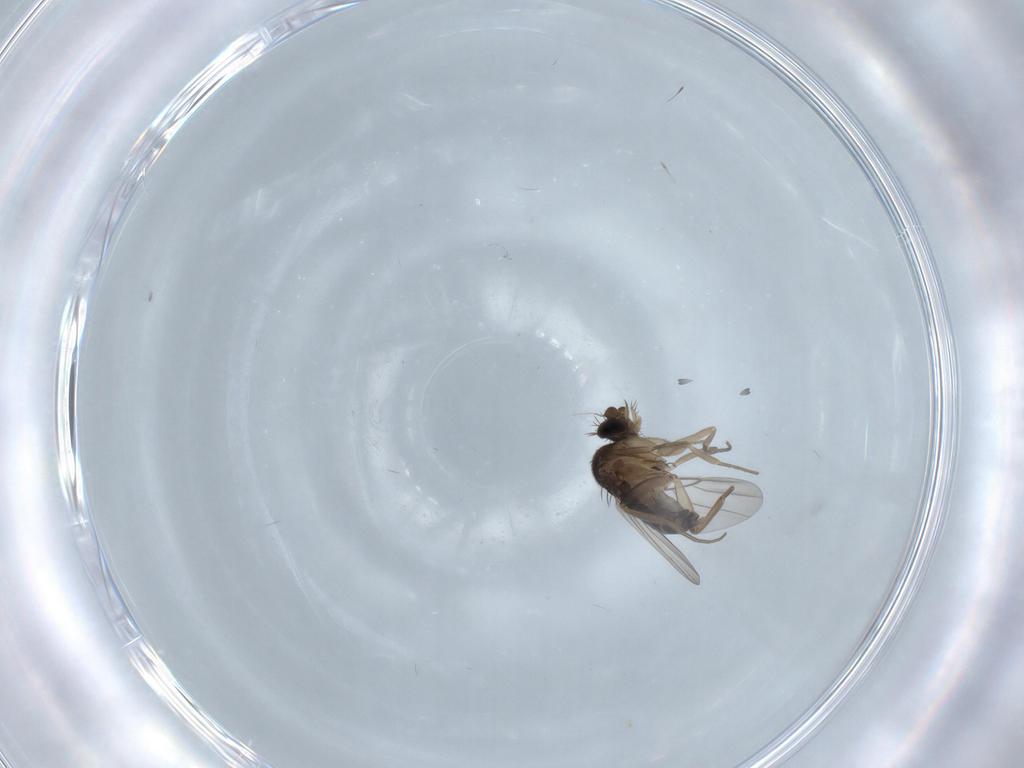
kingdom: Animalia
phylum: Arthropoda
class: Insecta
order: Diptera
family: Phoridae
